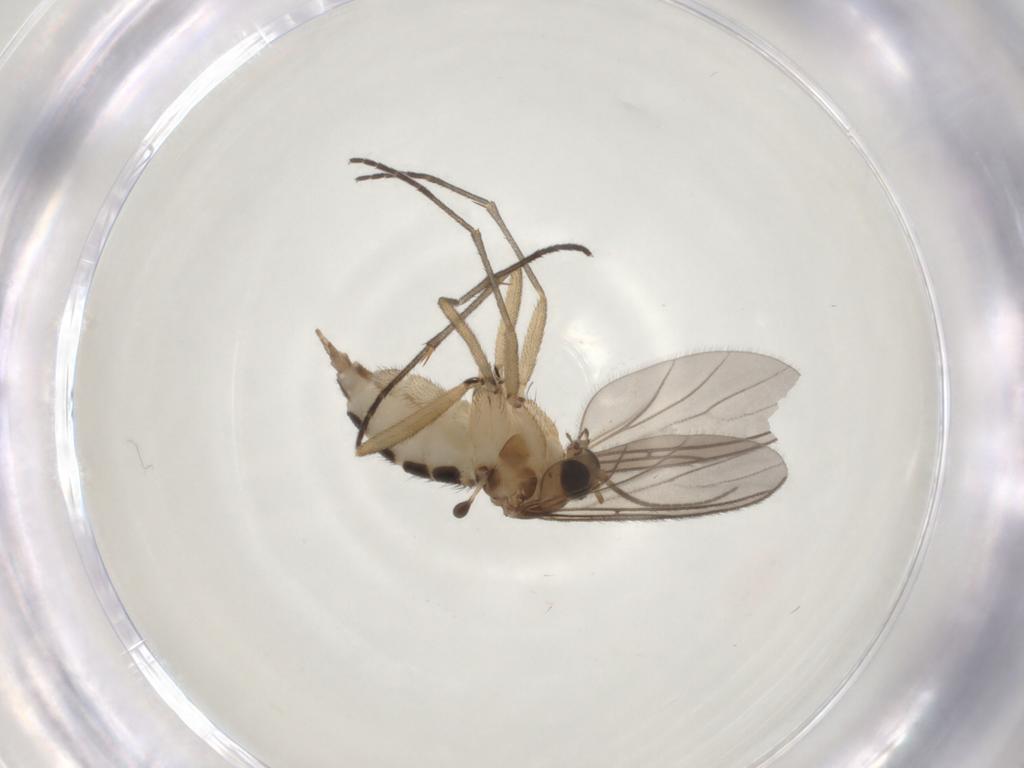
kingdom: Animalia
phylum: Arthropoda
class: Insecta
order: Diptera
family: Sciaridae
